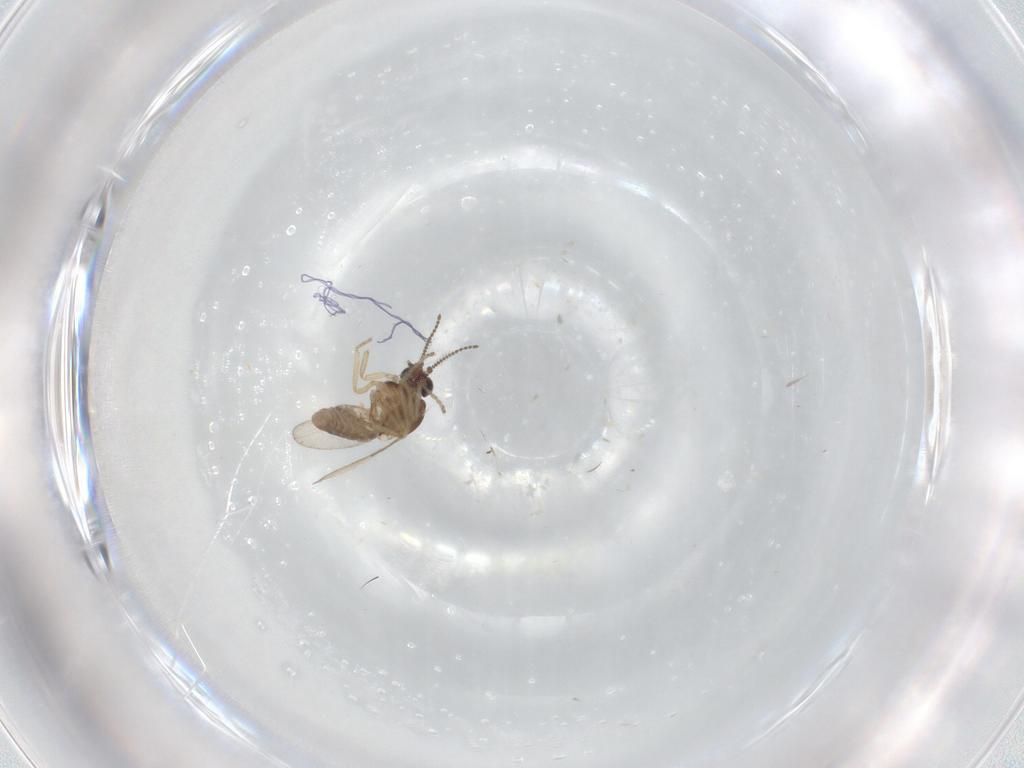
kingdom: Animalia
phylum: Arthropoda
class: Insecta
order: Diptera
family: Ceratopogonidae
